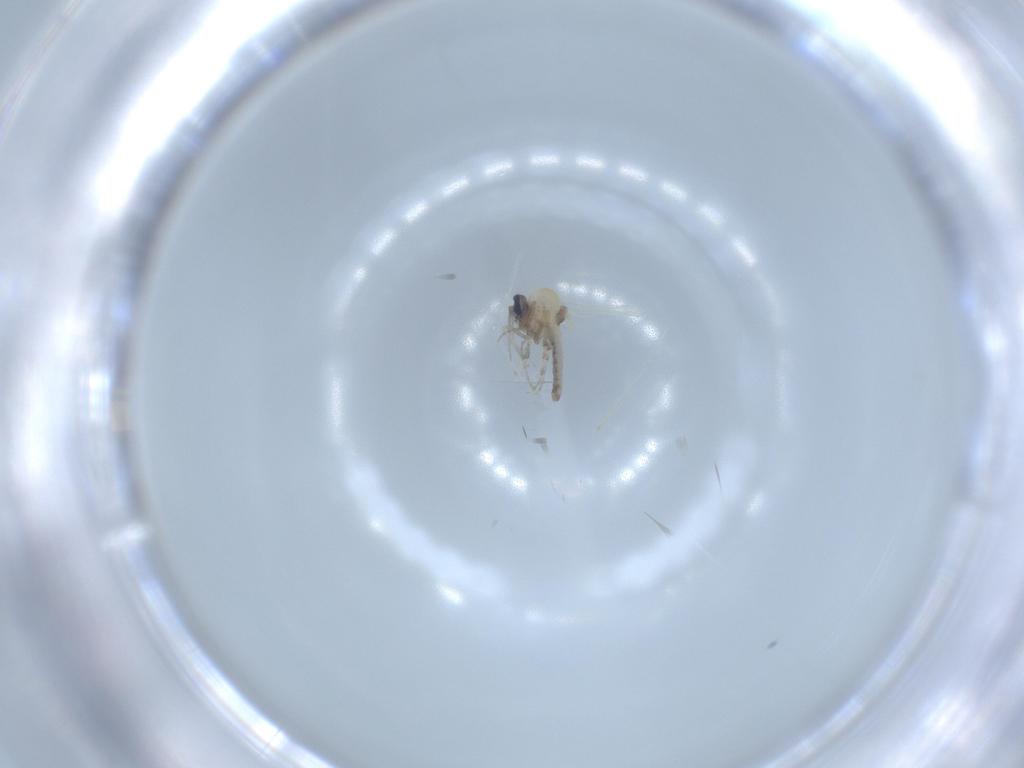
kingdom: Animalia
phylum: Arthropoda
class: Insecta
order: Diptera
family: Cecidomyiidae
